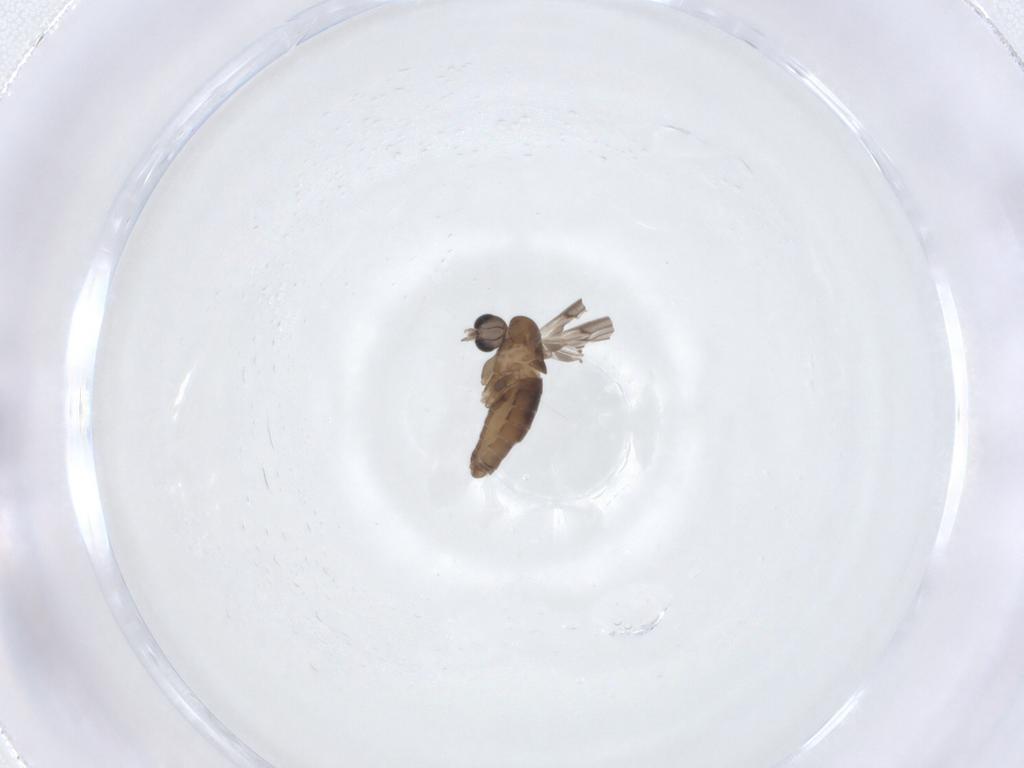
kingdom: Animalia
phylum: Arthropoda
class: Insecta
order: Diptera
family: Psychodidae
